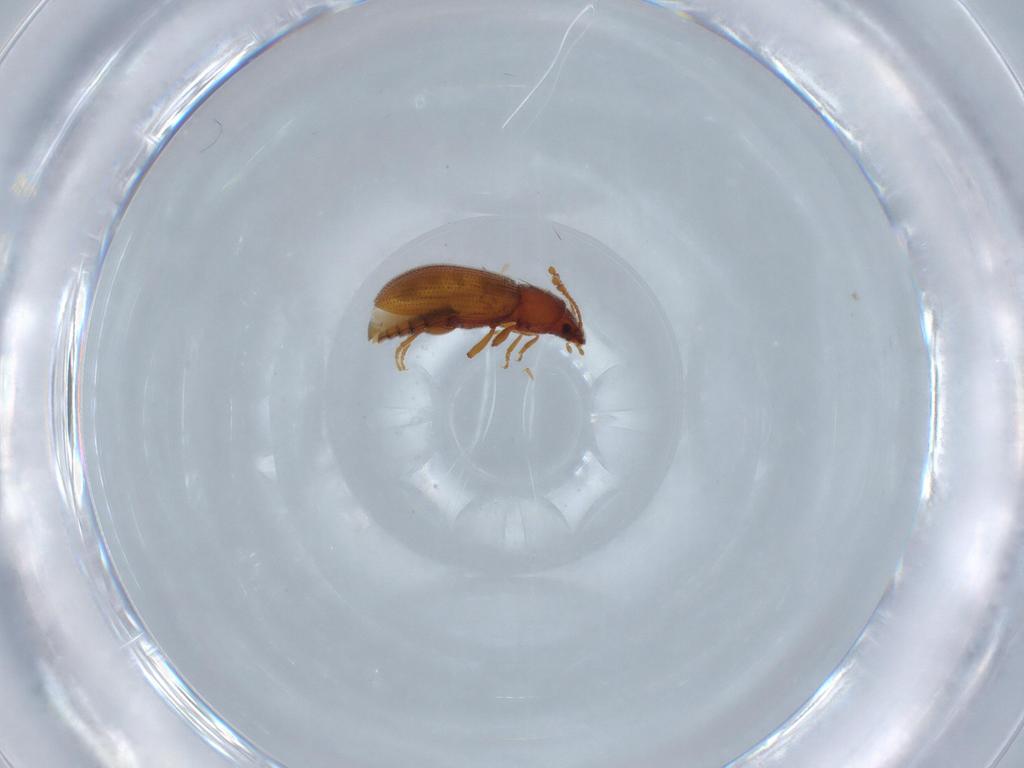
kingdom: Animalia
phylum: Arthropoda
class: Insecta
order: Coleoptera
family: Mycetophagidae
